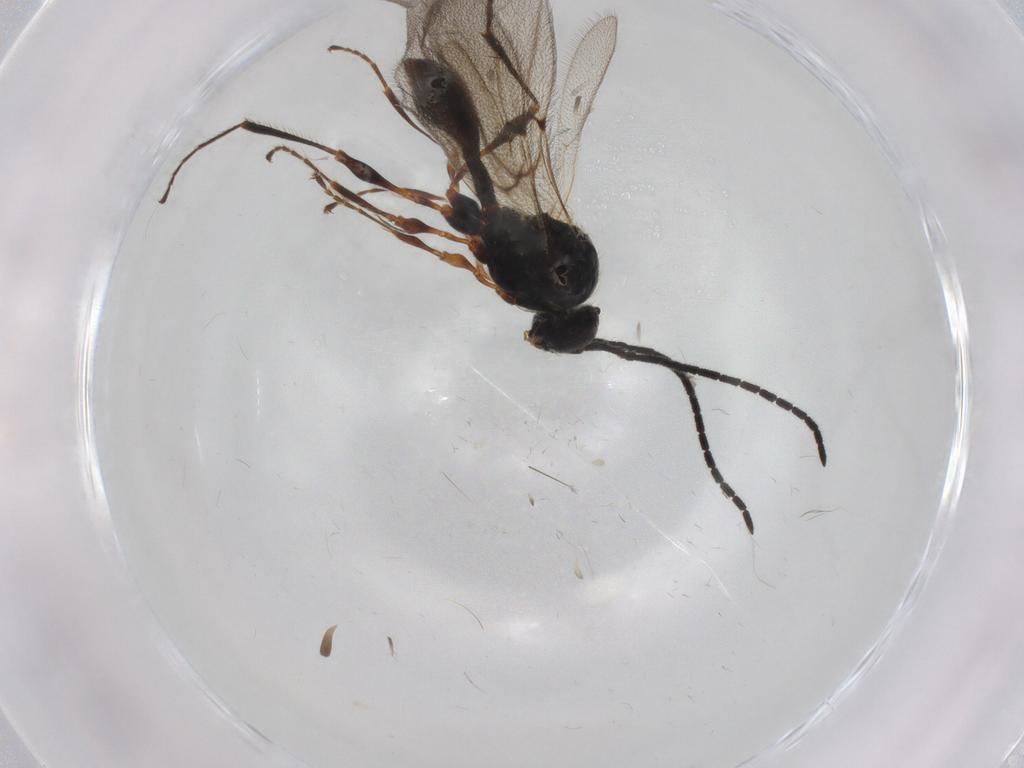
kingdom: Animalia
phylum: Arthropoda
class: Insecta
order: Hymenoptera
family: Diapriidae
